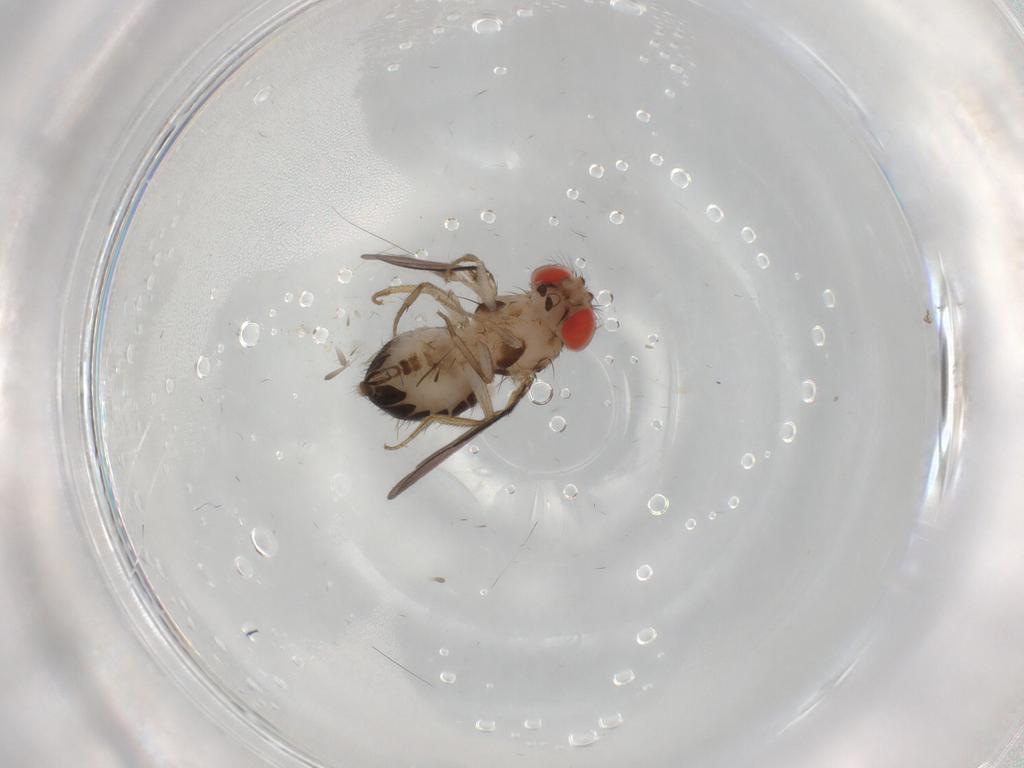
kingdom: Animalia
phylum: Arthropoda
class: Insecta
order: Diptera
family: Drosophilidae
